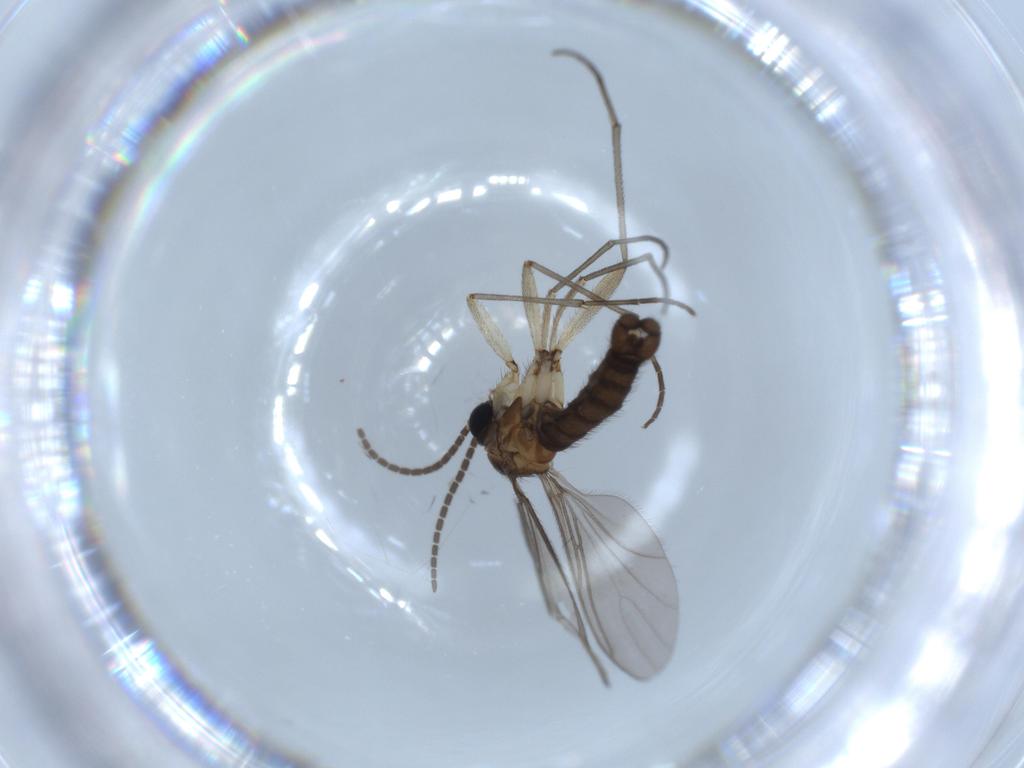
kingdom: Animalia
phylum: Arthropoda
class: Insecta
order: Diptera
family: Sciaridae
